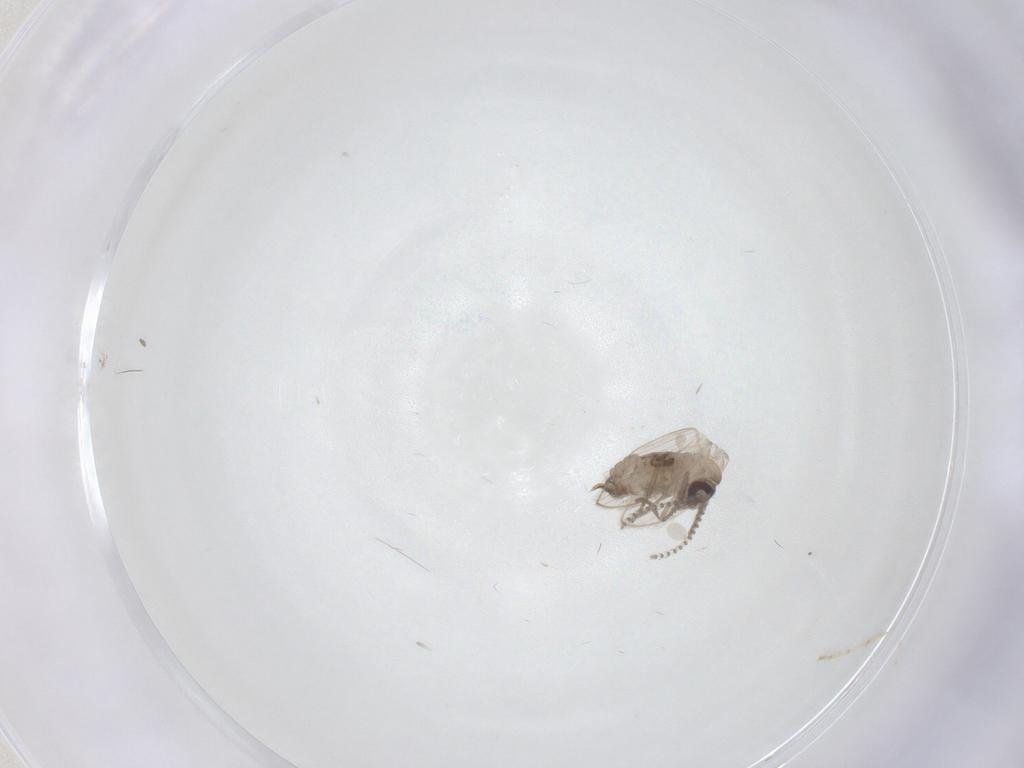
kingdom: Animalia
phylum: Arthropoda
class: Insecta
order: Diptera
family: Psychodidae
